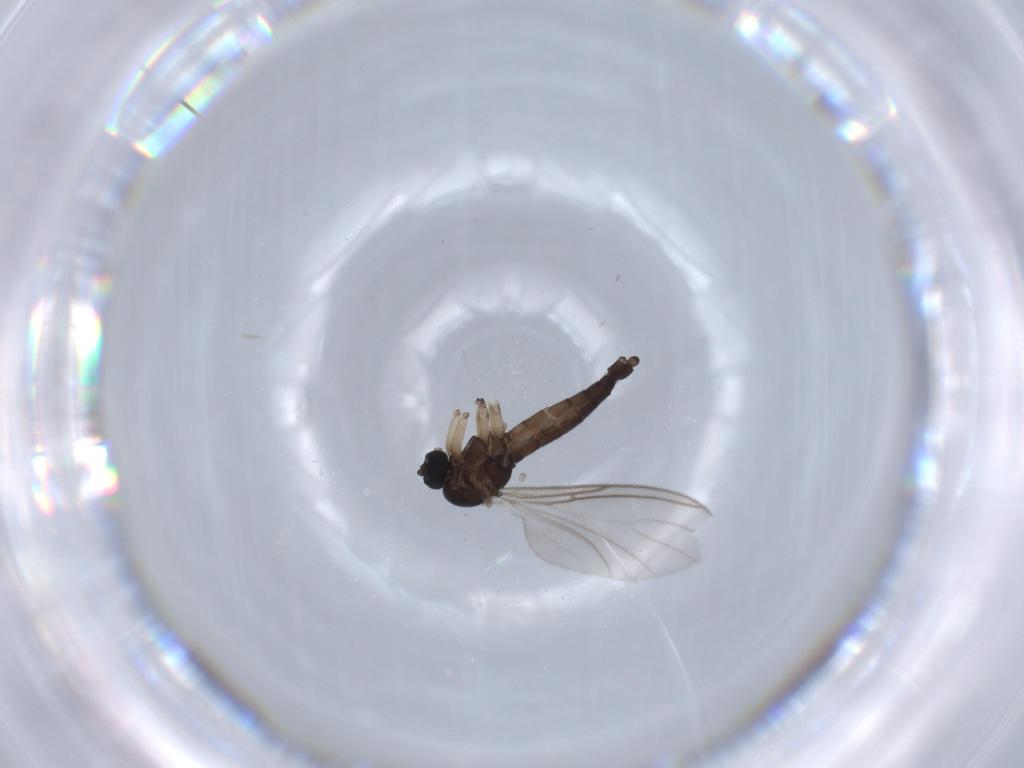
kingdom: Animalia
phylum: Arthropoda
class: Insecta
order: Diptera
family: Chironomidae
